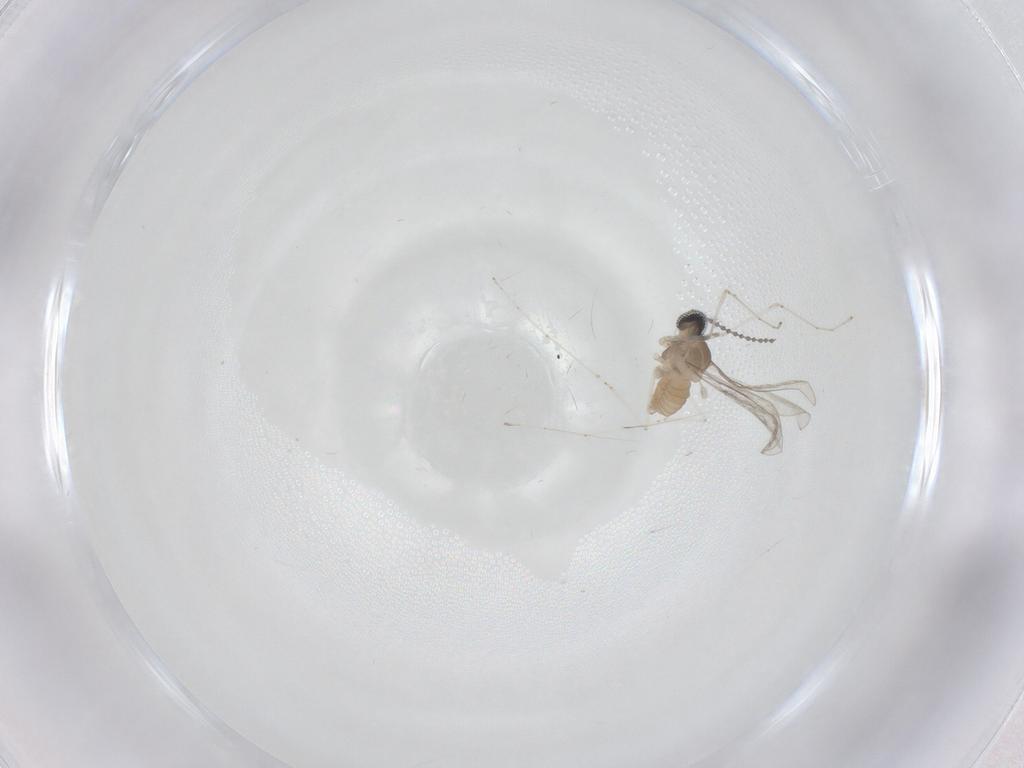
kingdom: Animalia
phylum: Arthropoda
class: Insecta
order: Diptera
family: Cecidomyiidae
